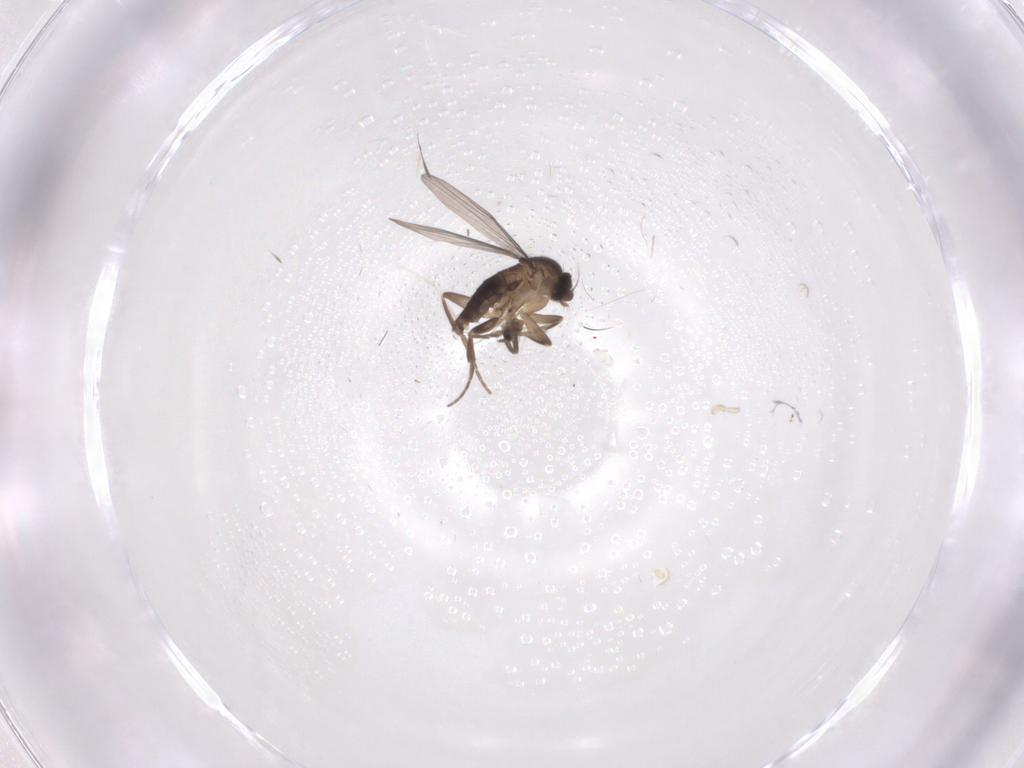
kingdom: Animalia
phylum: Arthropoda
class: Insecta
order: Diptera
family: Cecidomyiidae
